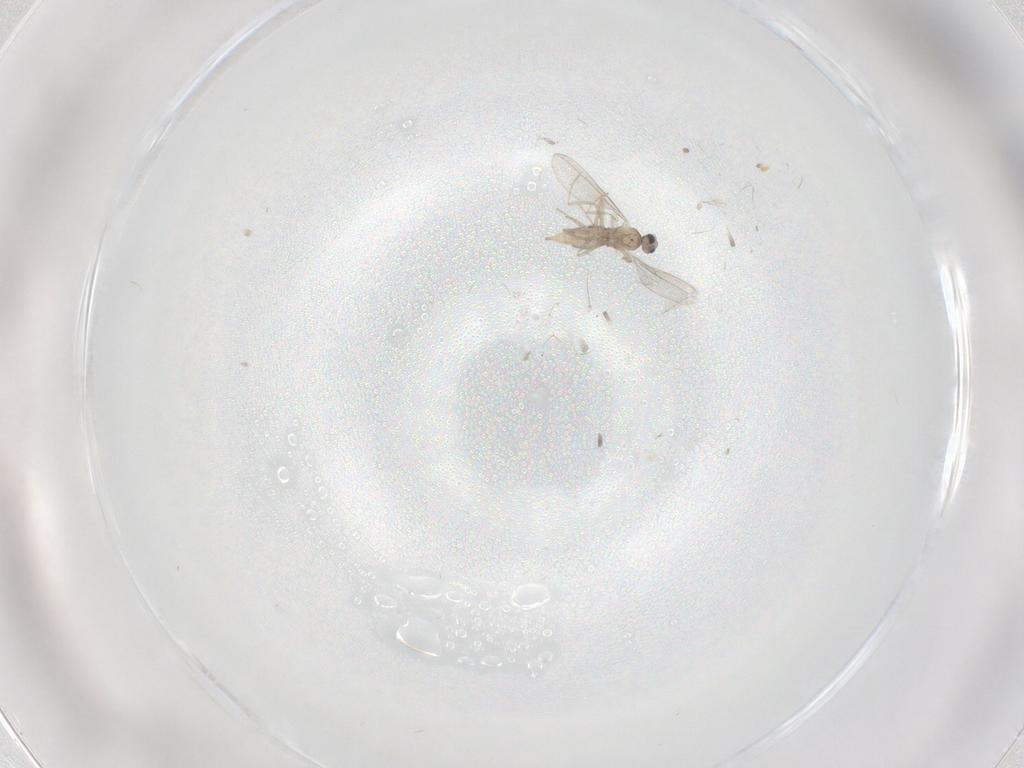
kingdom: Animalia
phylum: Arthropoda
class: Insecta
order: Diptera
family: Cecidomyiidae
